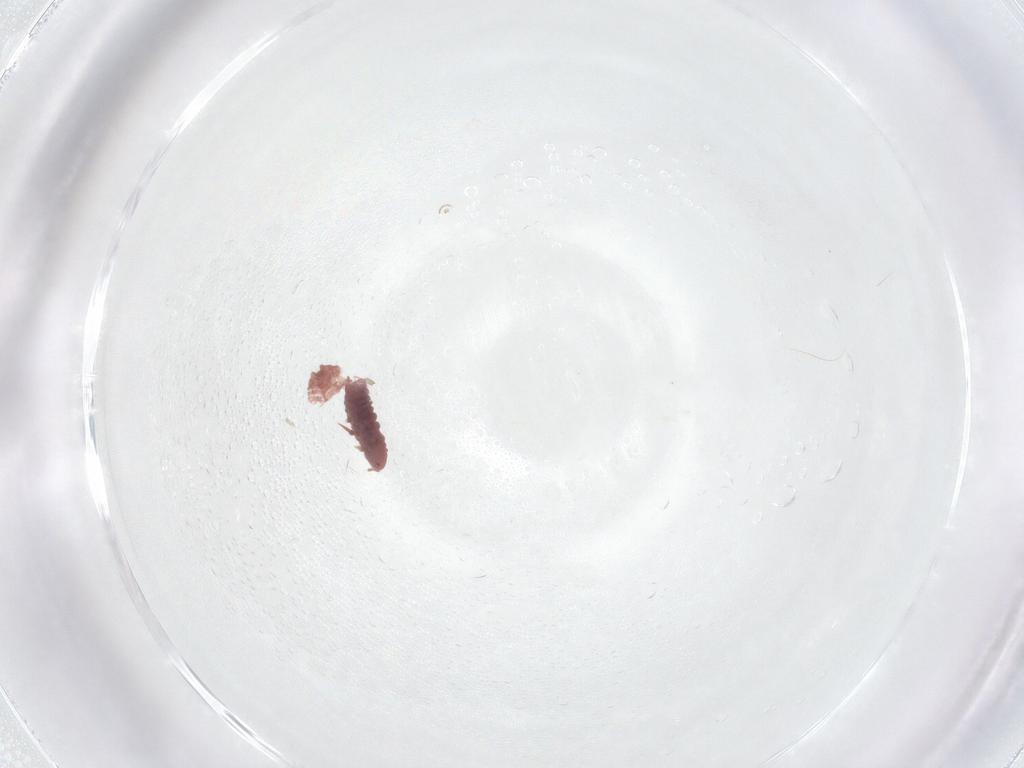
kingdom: Animalia
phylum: Arthropoda
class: Insecta
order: Hymenoptera
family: Encyrtidae
